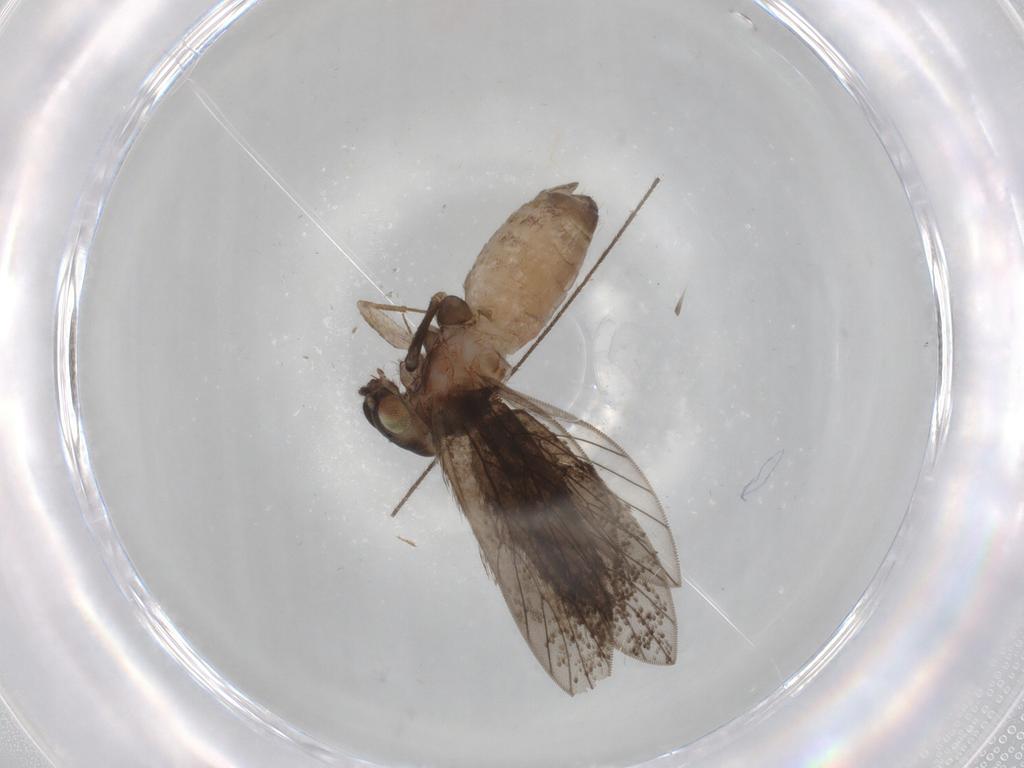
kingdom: Animalia
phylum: Arthropoda
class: Insecta
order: Psocodea
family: Lepidopsocidae
